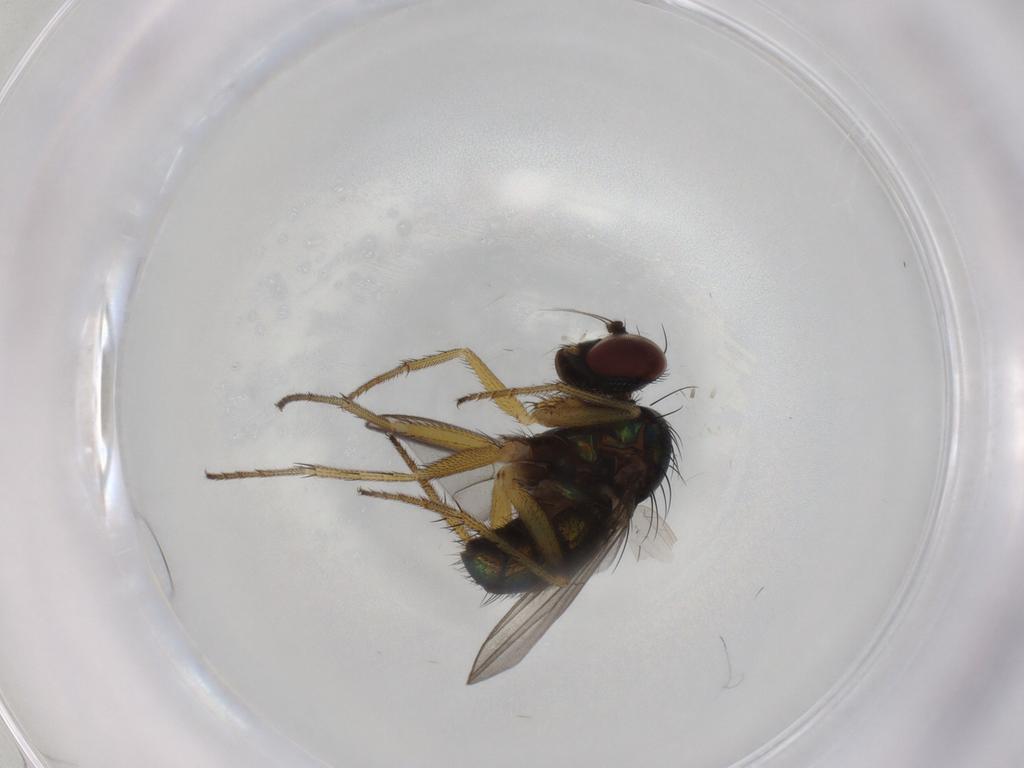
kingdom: Animalia
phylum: Arthropoda
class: Insecta
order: Diptera
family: Dolichopodidae
